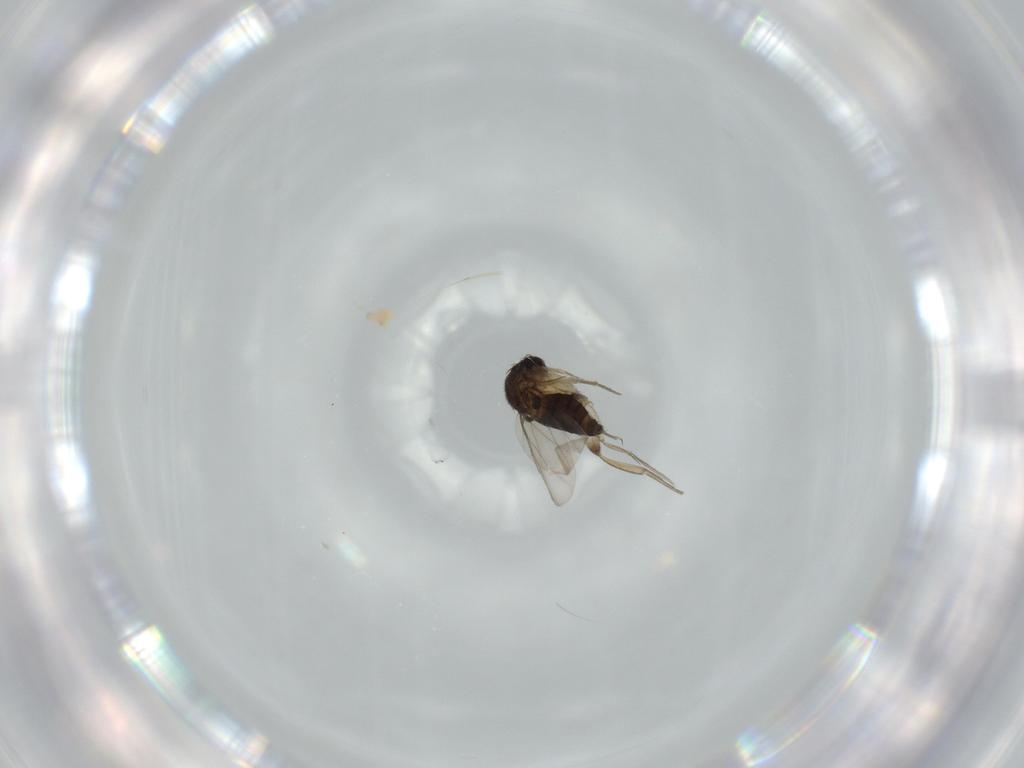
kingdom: Animalia
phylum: Arthropoda
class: Insecta
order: Diptera
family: Phoridae
